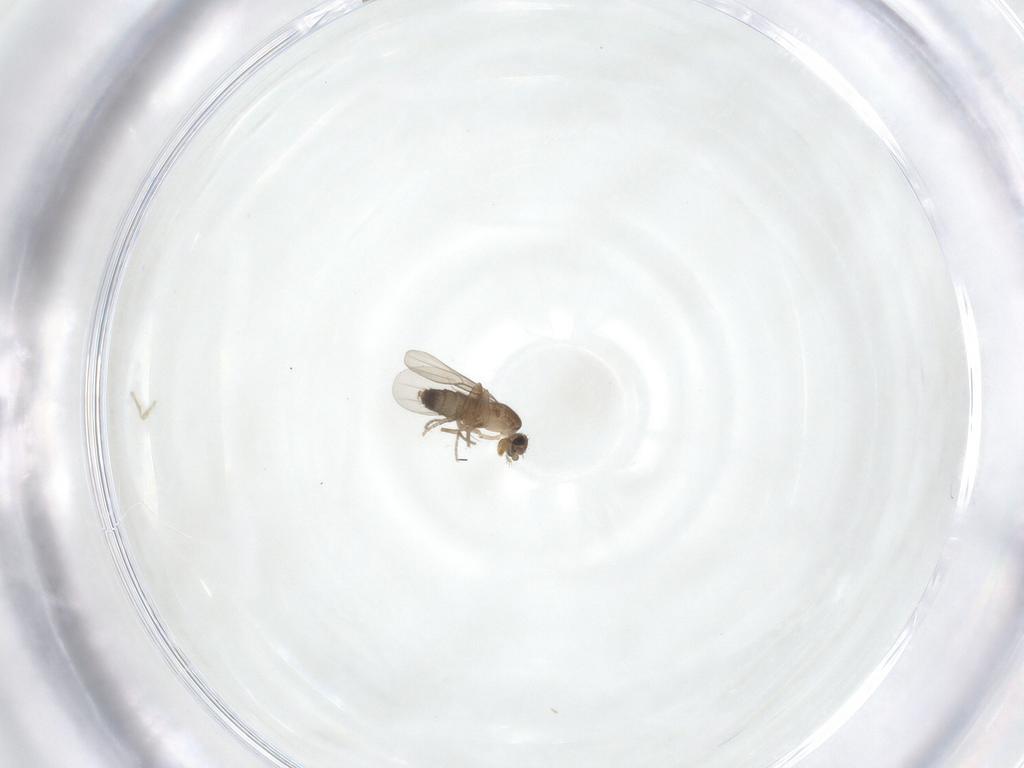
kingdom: Animalia
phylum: Arthropoda
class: Insecta
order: Diptera
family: Phoridae
